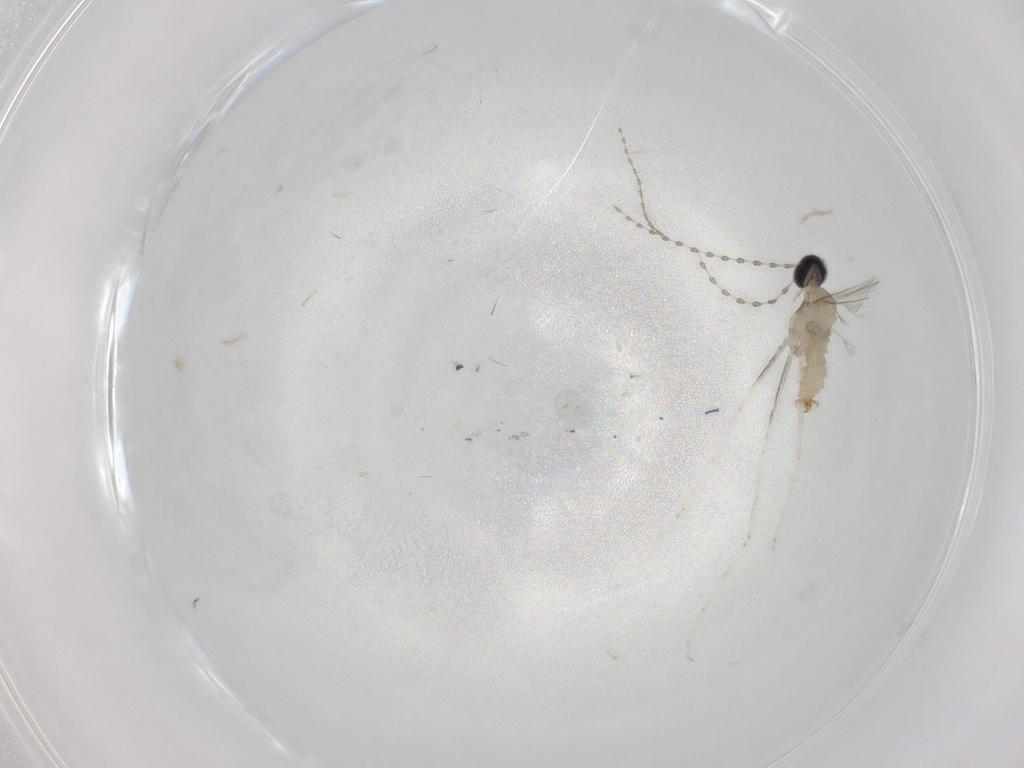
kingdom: Animalia
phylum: Arthropoda
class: Insecta
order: Diptera
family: Cecidomyiidae
